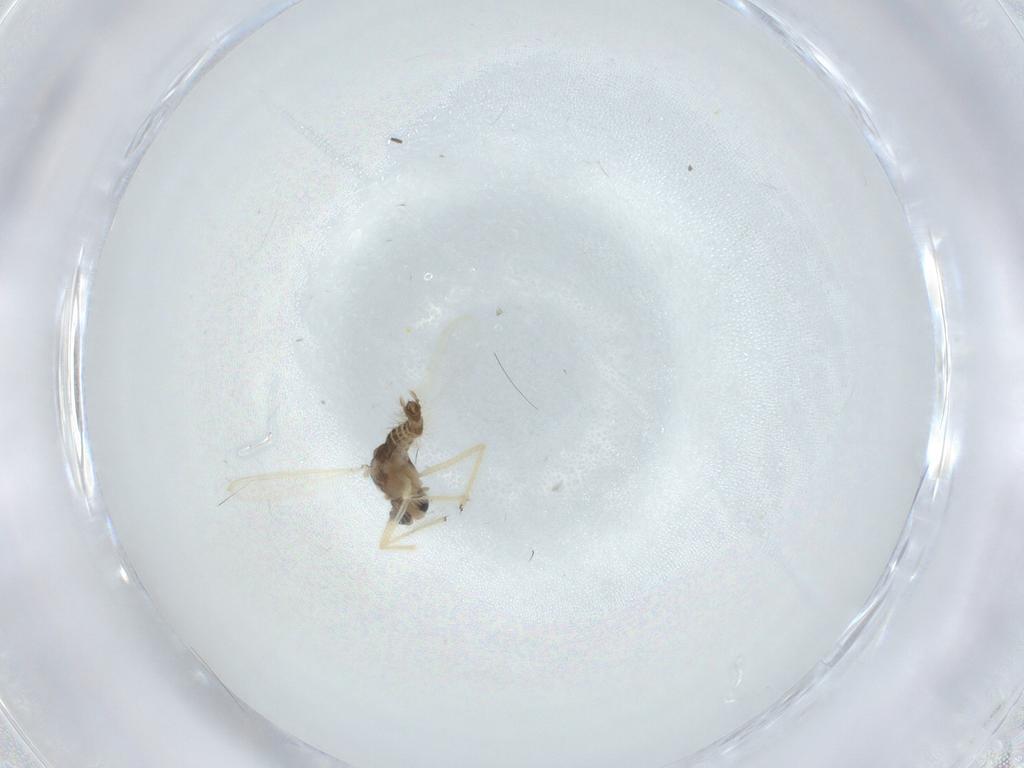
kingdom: Animalia
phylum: Arthropoda
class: Insecta
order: Diptera
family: Chironomidae
